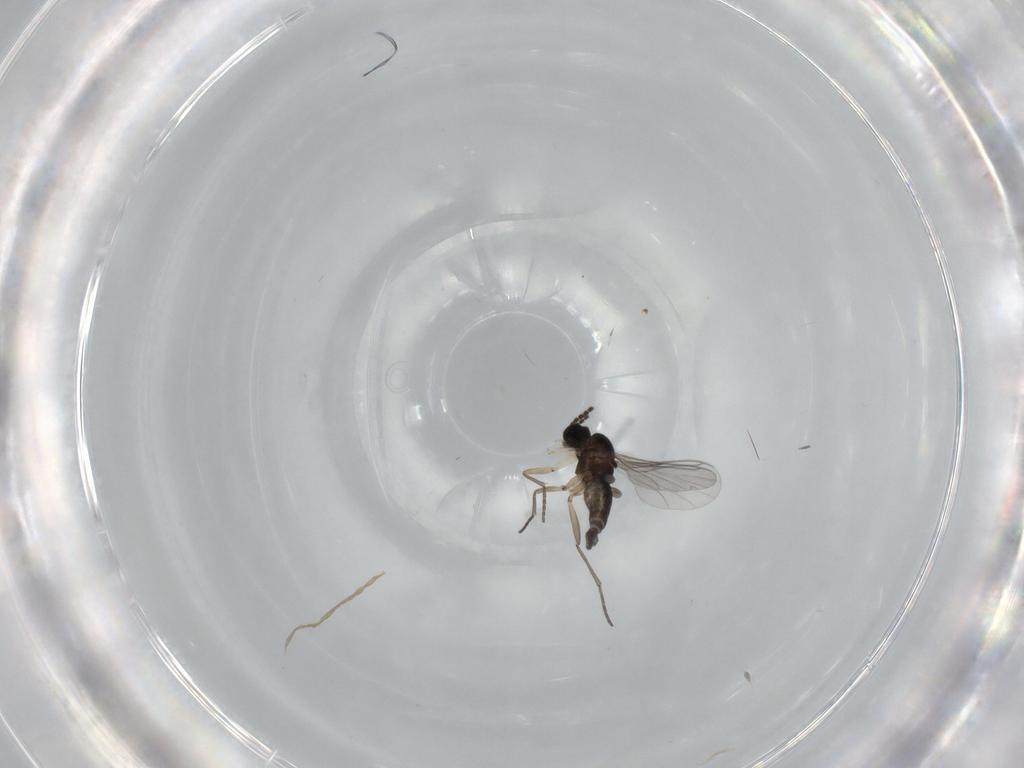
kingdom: Animalia
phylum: Arthropoda
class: Insecta
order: Diptera
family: Sciaridae
